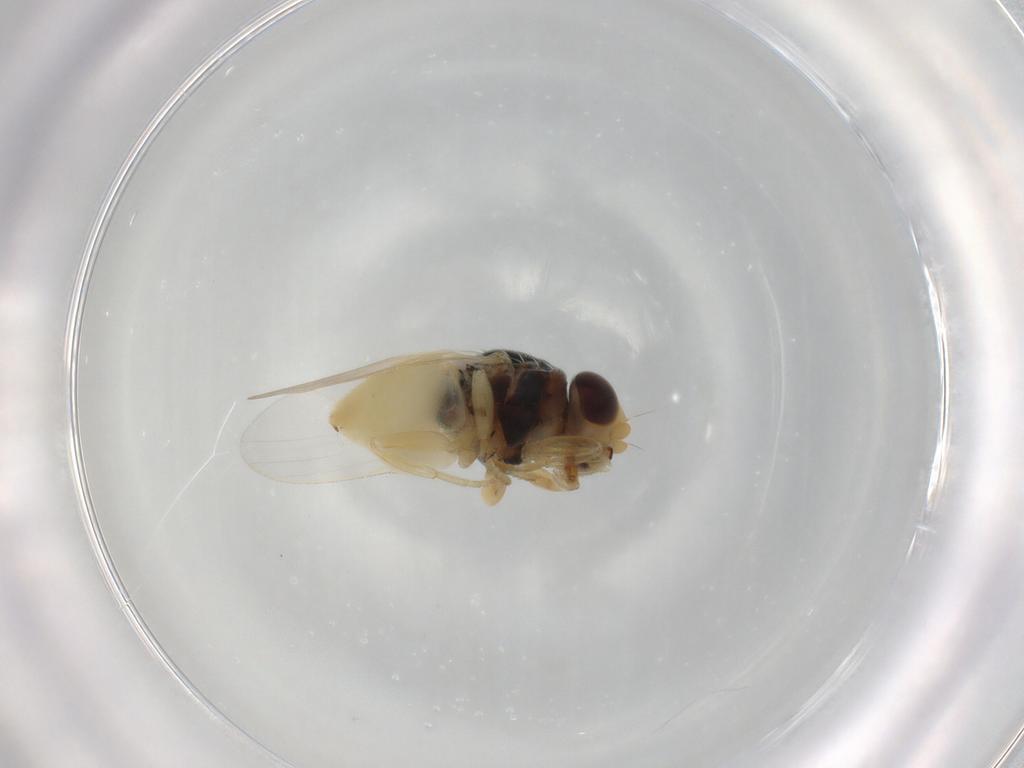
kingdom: Animalia
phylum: Arthropoda
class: Insecta
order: Diptera
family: Chloropidae
